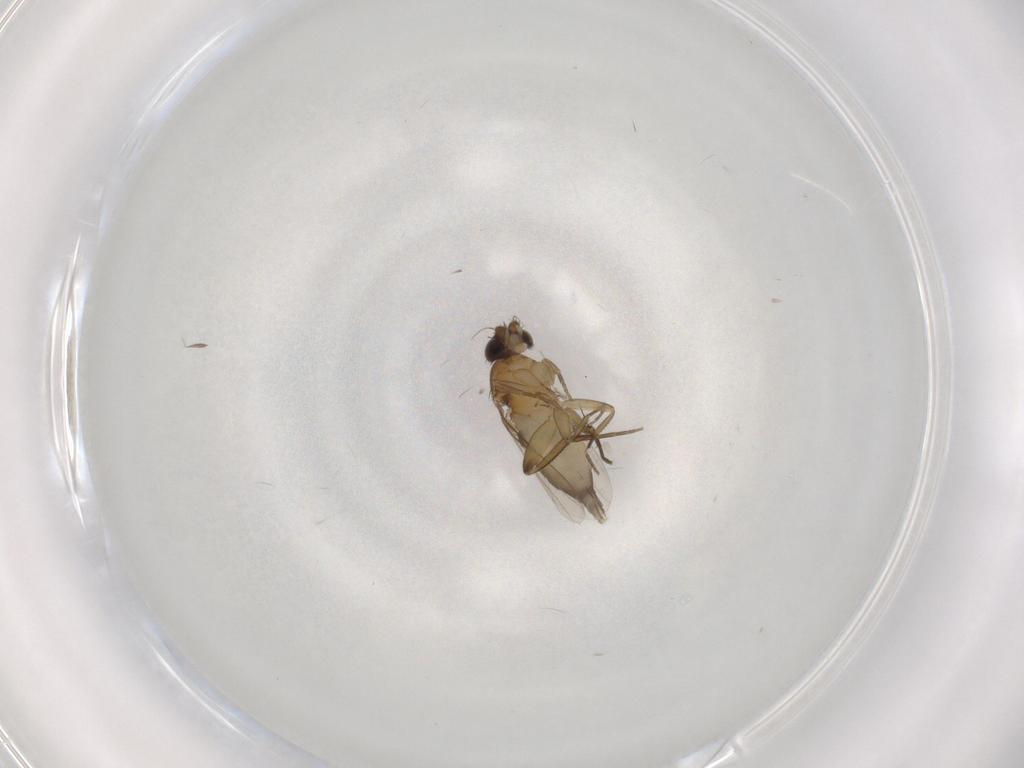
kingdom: Animalia
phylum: Arthropoda
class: Insecta
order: Diptera
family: Phoridae
